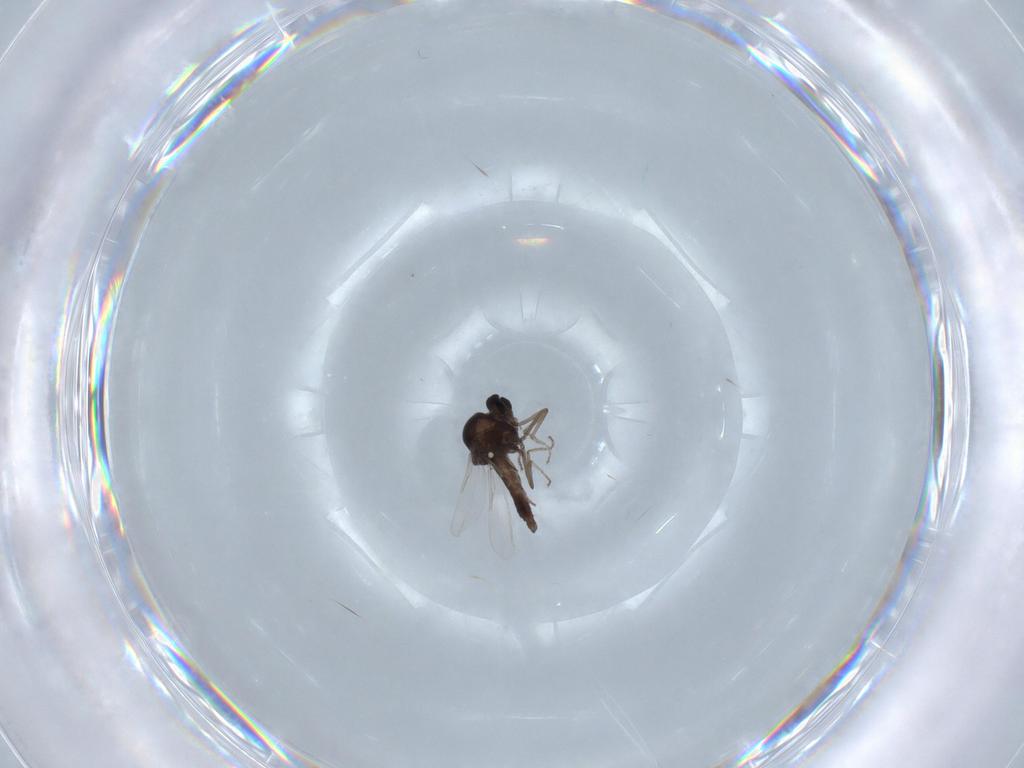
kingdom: Animalia
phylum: Arthropoda
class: Insecta
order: Diptera
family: Ceratopogonidae
